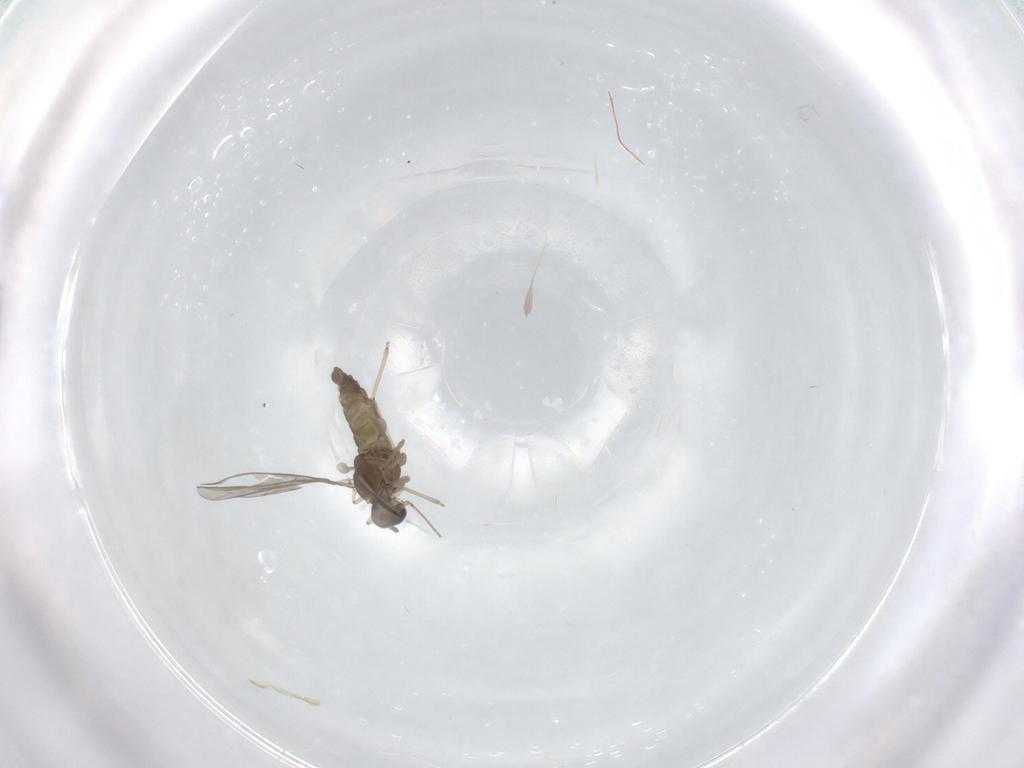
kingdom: Animalia
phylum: Arthropoda
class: Insecta
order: Diptera
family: Cecidomyiidae
